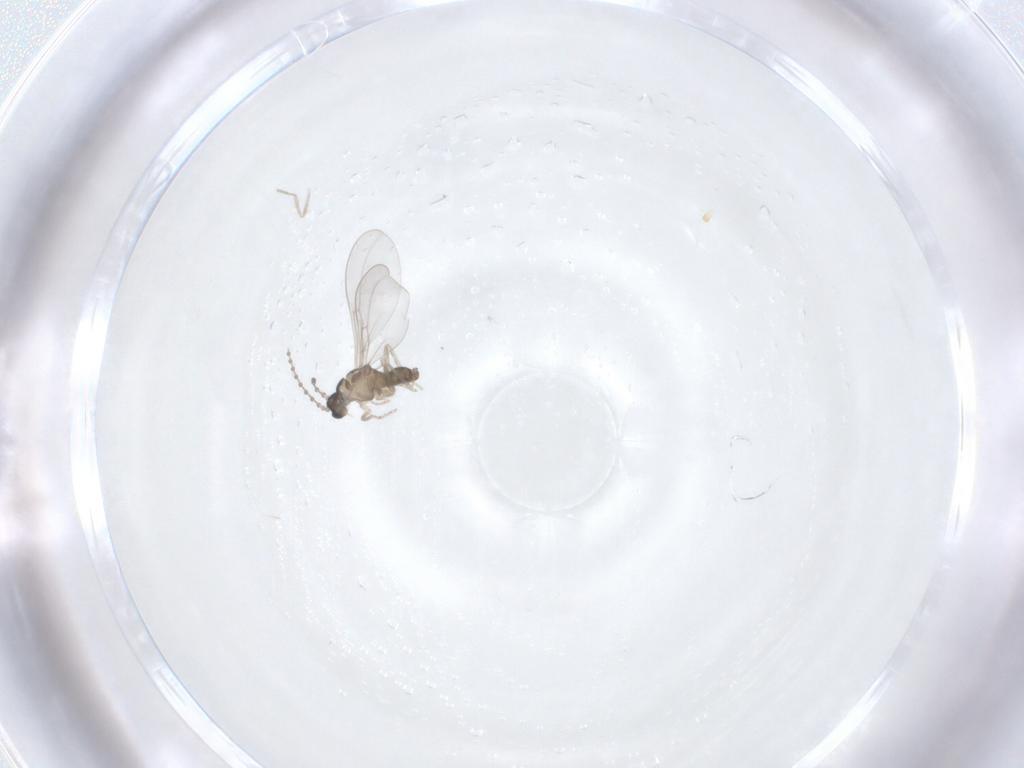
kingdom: Animalia
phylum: Arthropoda
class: Insecta
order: Diptera
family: Cecidomyiidae
